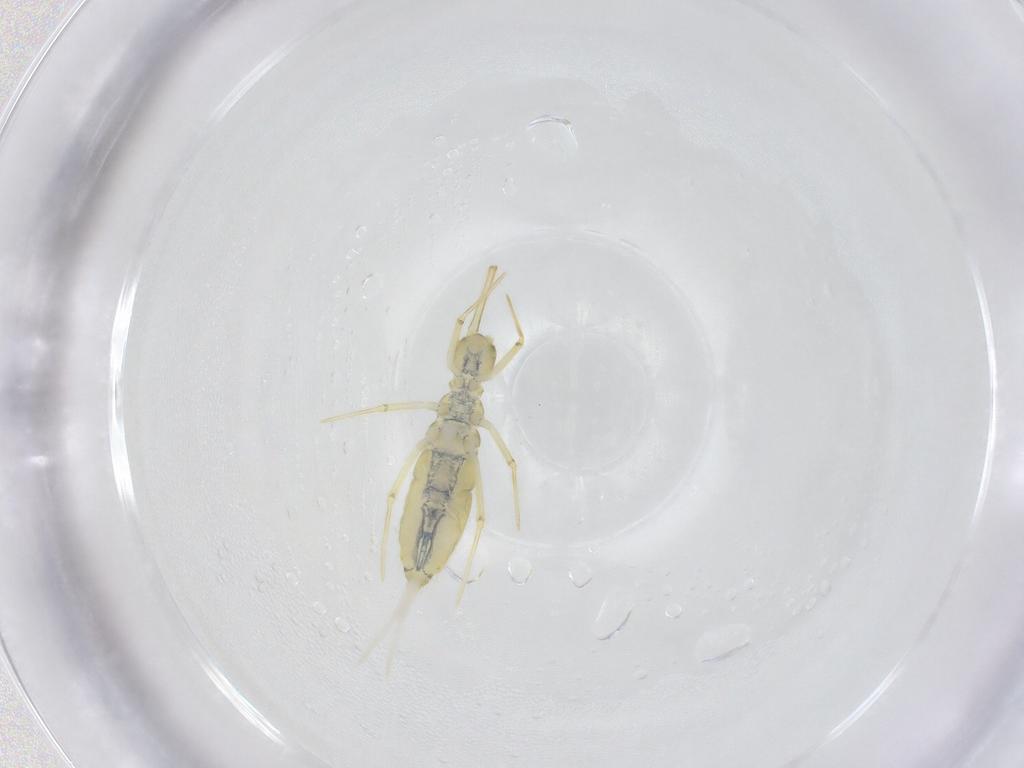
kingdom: Animalia
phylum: Arthropoda
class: Collembola
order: Entomobryomorpha
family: Paronellidae
